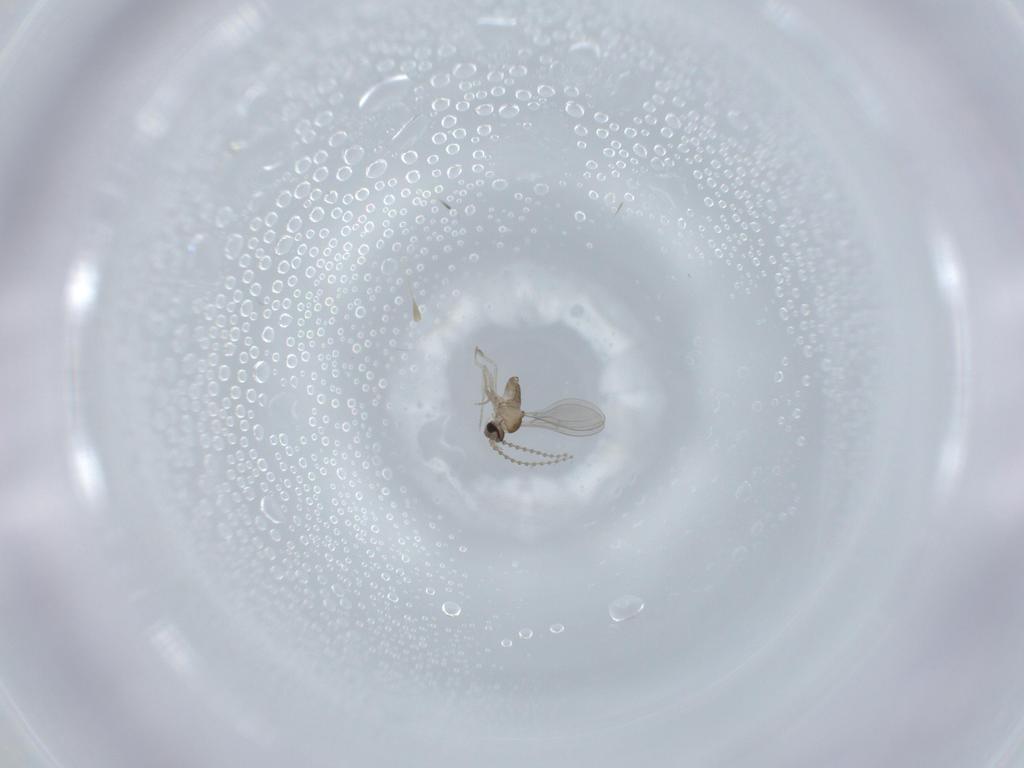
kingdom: Animalia
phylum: Arthropoda
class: Insecta
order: Diptera
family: Cecidomyiidae
